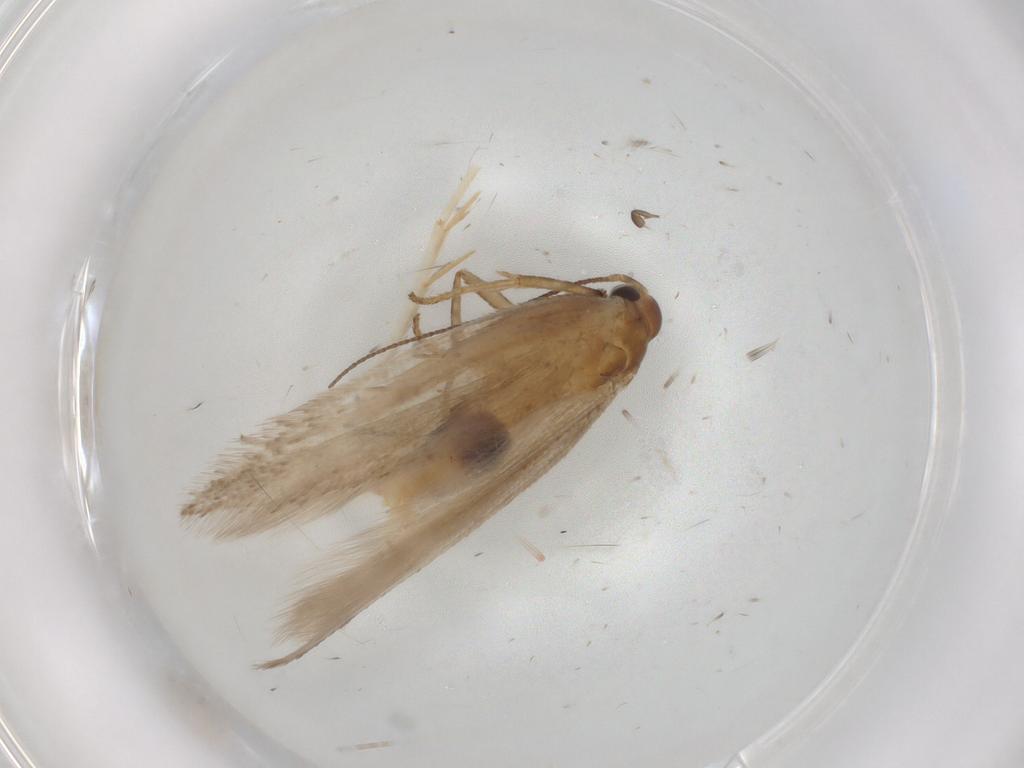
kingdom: Animalia
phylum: Arthropoda
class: Insecta
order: Lepidoptera
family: Gelechiidae
